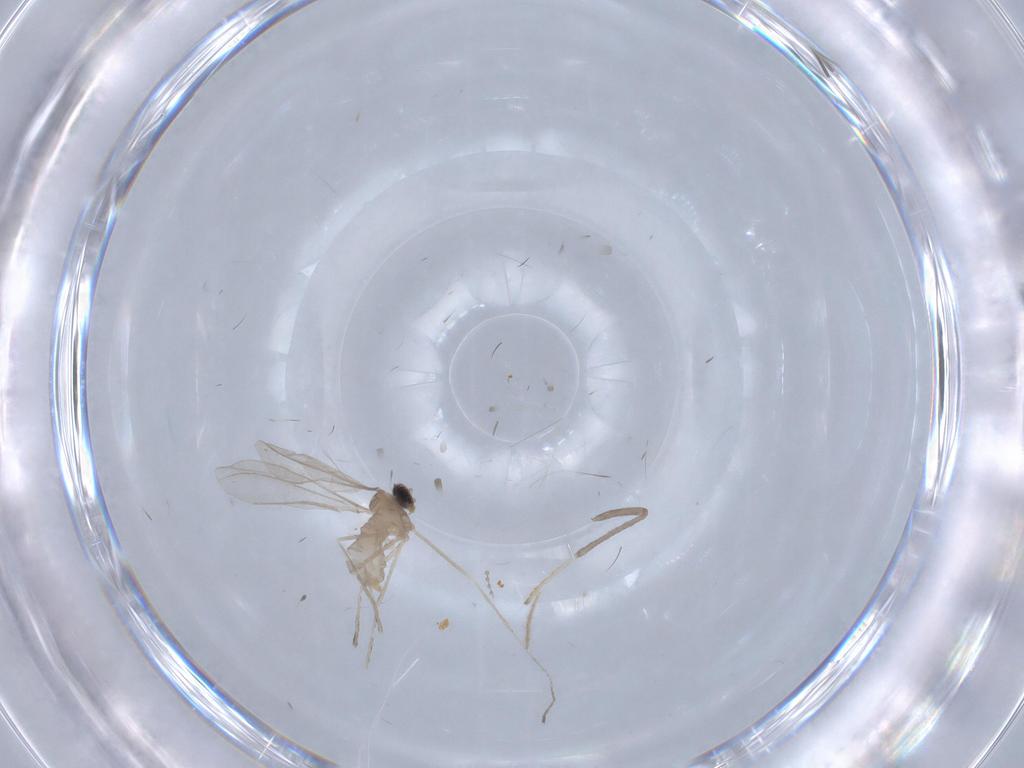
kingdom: Animalia
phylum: Arthropoda
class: Insecta
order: Diptera
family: Cecidomyiidae
